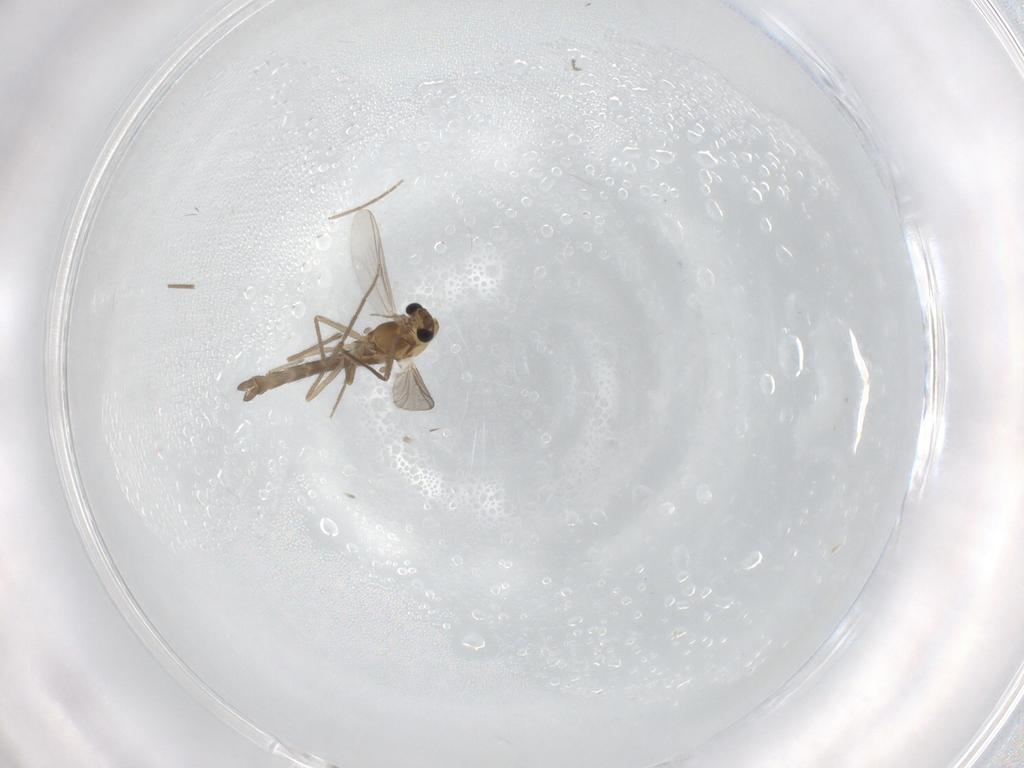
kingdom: Animalia
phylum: Arthropoda
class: Insecta
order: Diptera
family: Chironomidae
